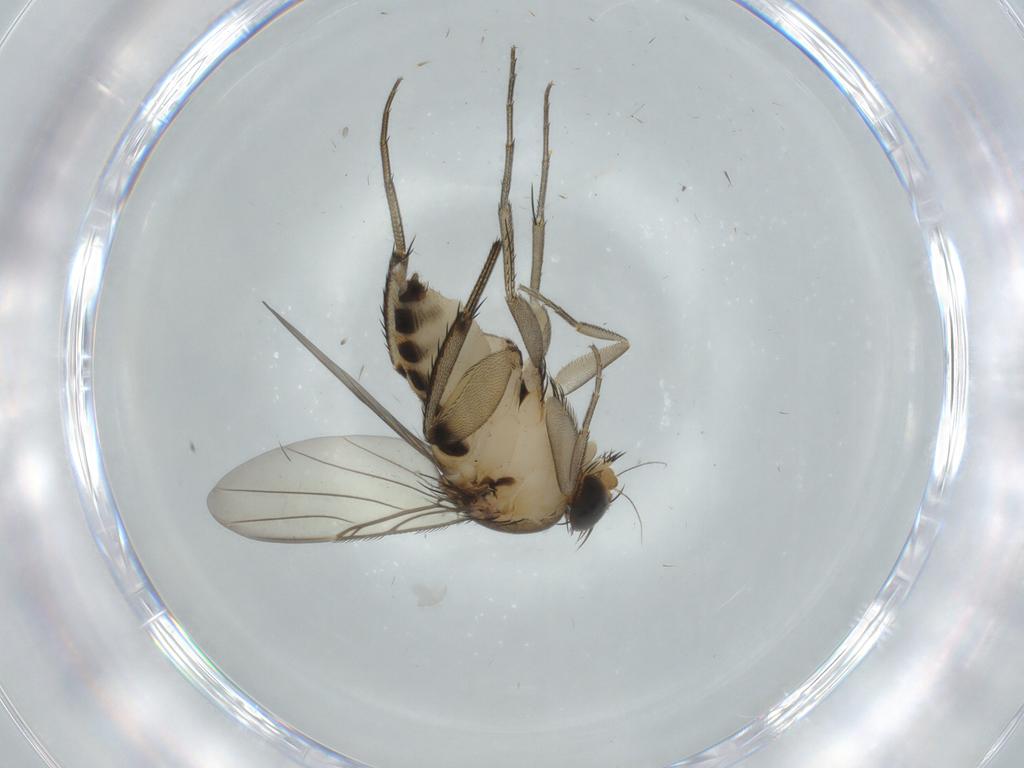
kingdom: Animalia
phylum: Arthropoda
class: Insecta
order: Diptera
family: Phoridae
